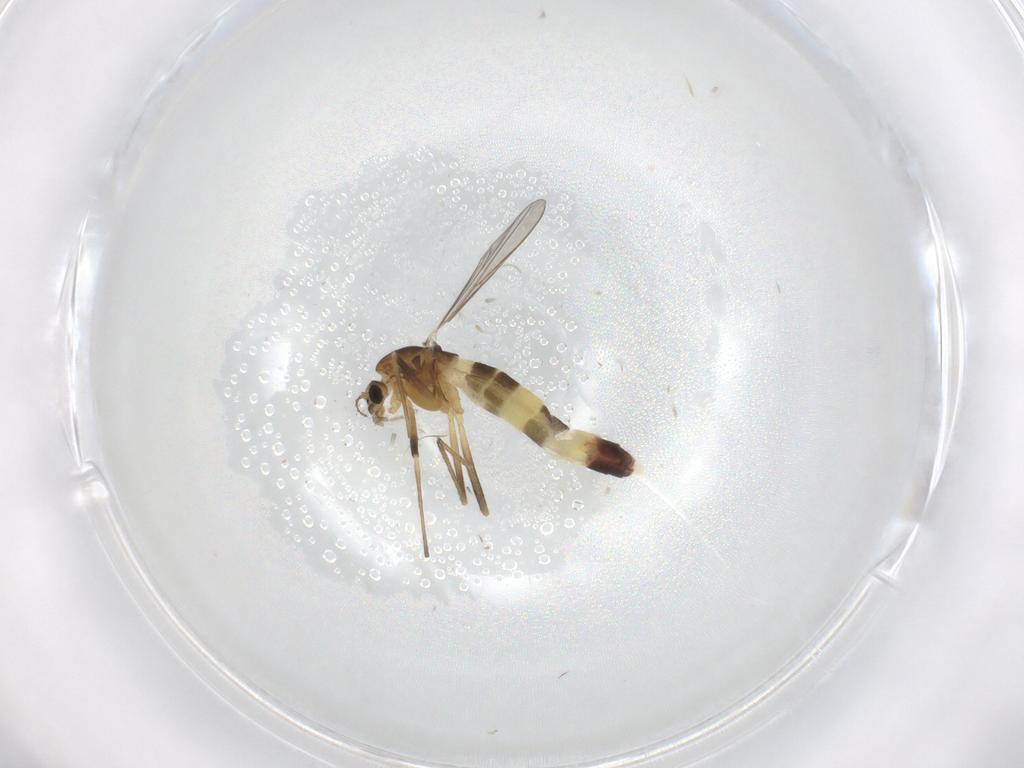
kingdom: Animalia
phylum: Arthropoda
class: Insecta
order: Diptera
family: Chironomidae
